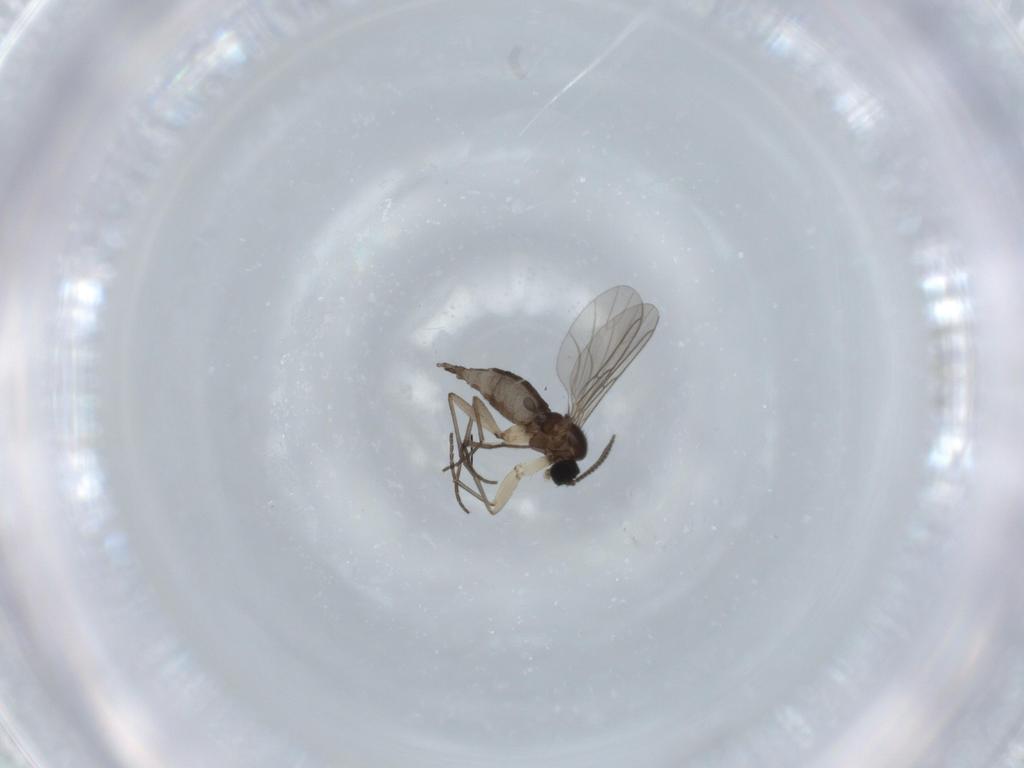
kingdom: Animalia
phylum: Arthropoda
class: Insecta
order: Diptera
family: Sciaridae
